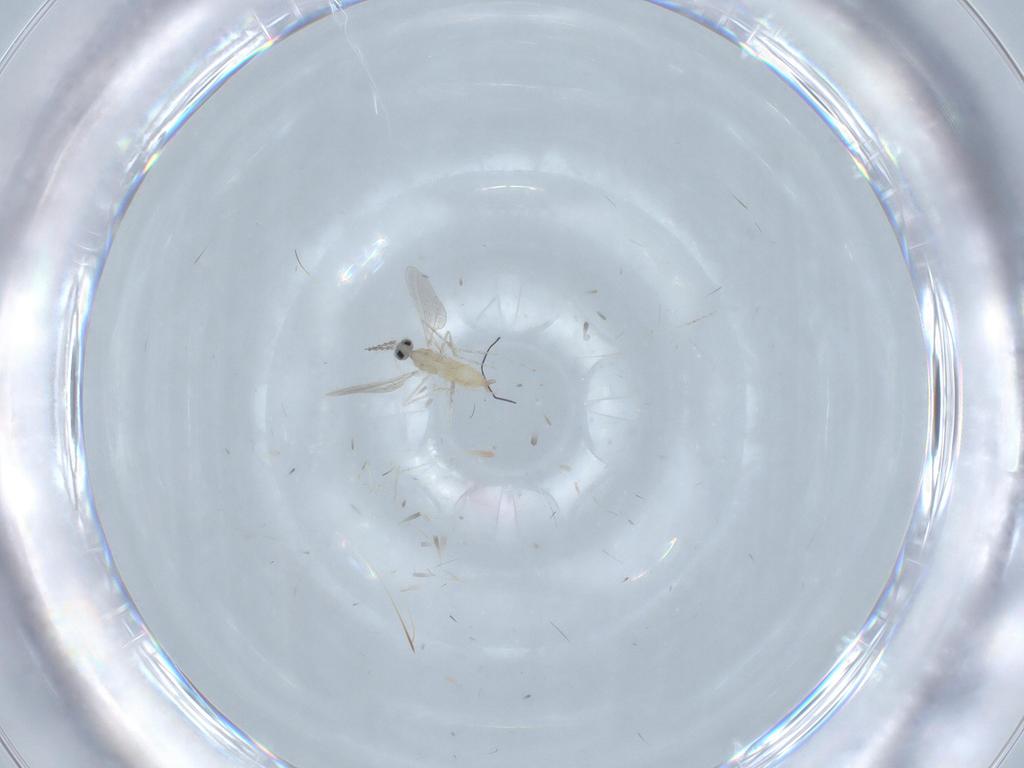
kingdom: Animalia
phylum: Arthropoda
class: Insecta
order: Diptera
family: Cecidomyiidae
